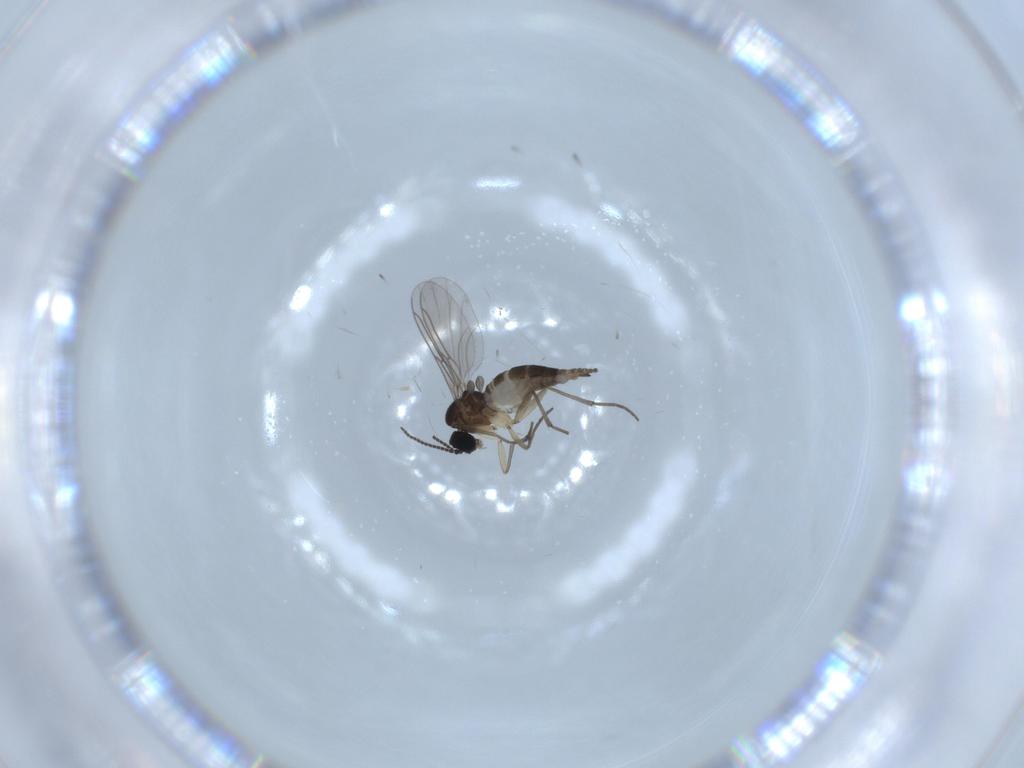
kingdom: Animalia
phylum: Arthropoda
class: Insecta
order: Diptera
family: Sciaridae
